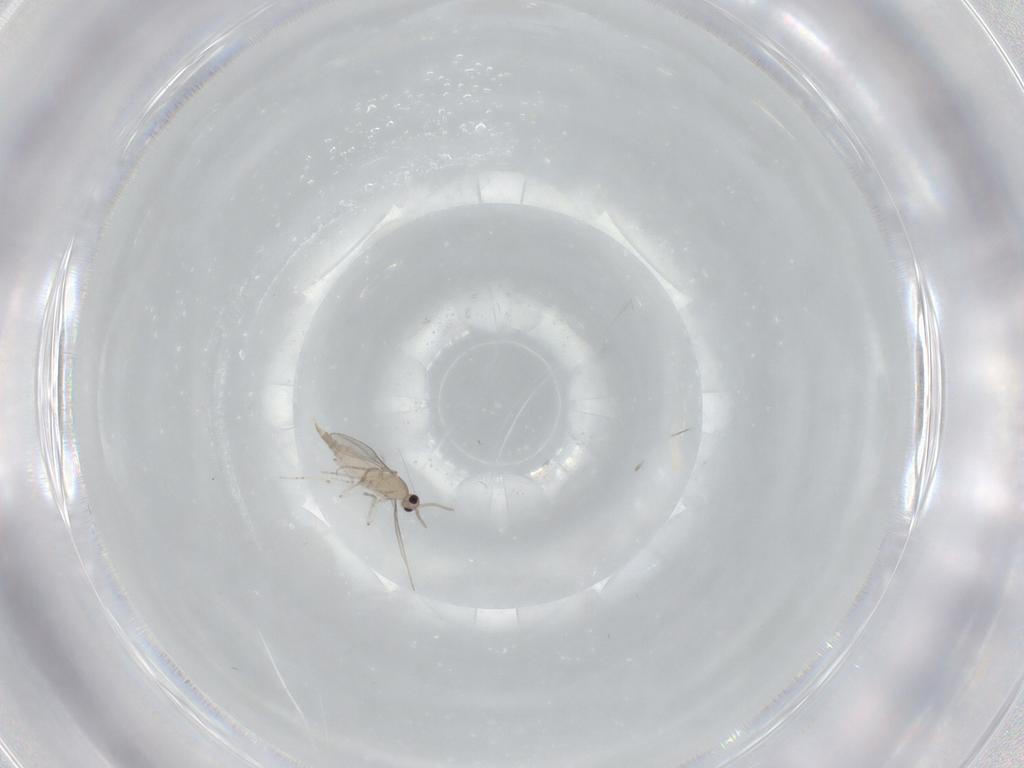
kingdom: Animalia
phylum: Arthropoda
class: Insecta
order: Diptera
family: Cecidomyiidae
